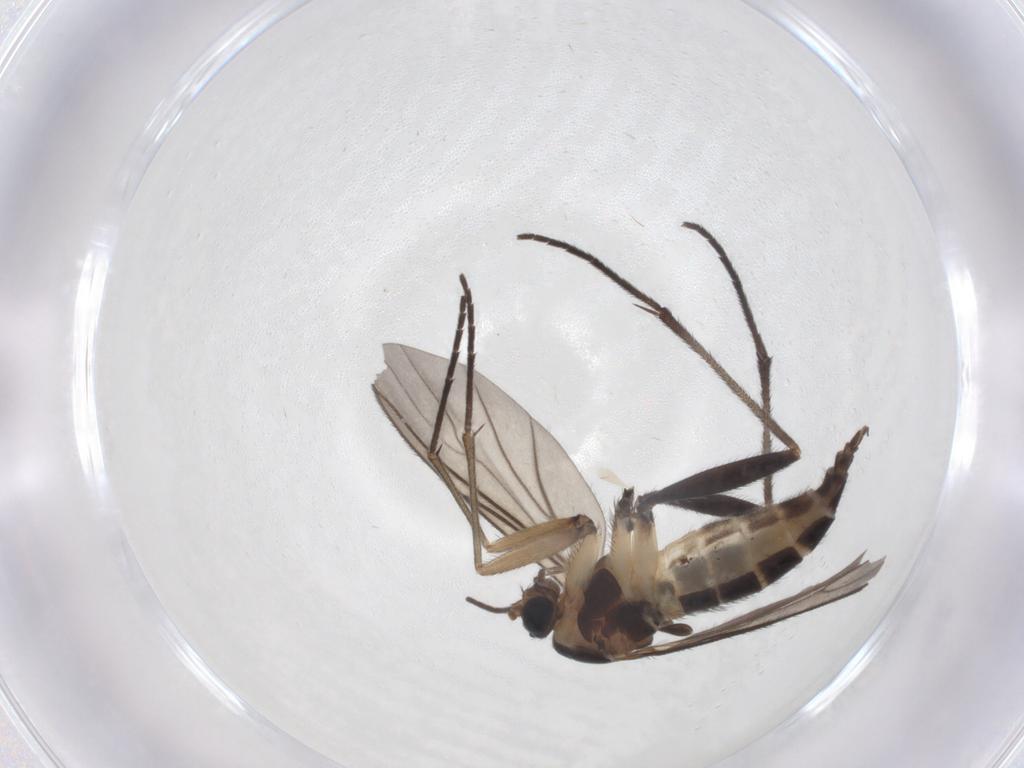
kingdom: Animalia
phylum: Arthropoda
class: Insecta
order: Diptera
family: Sciaridae
